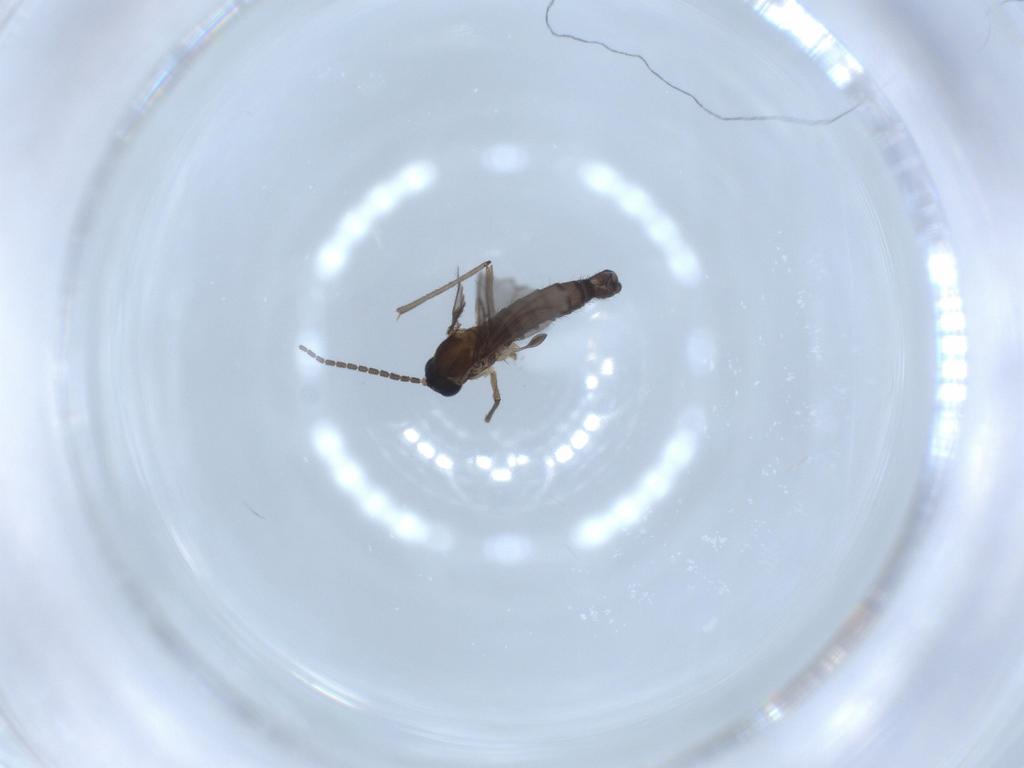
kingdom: Animalia
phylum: Arthropoda
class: Insecta
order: Diptera
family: Sciaridae
